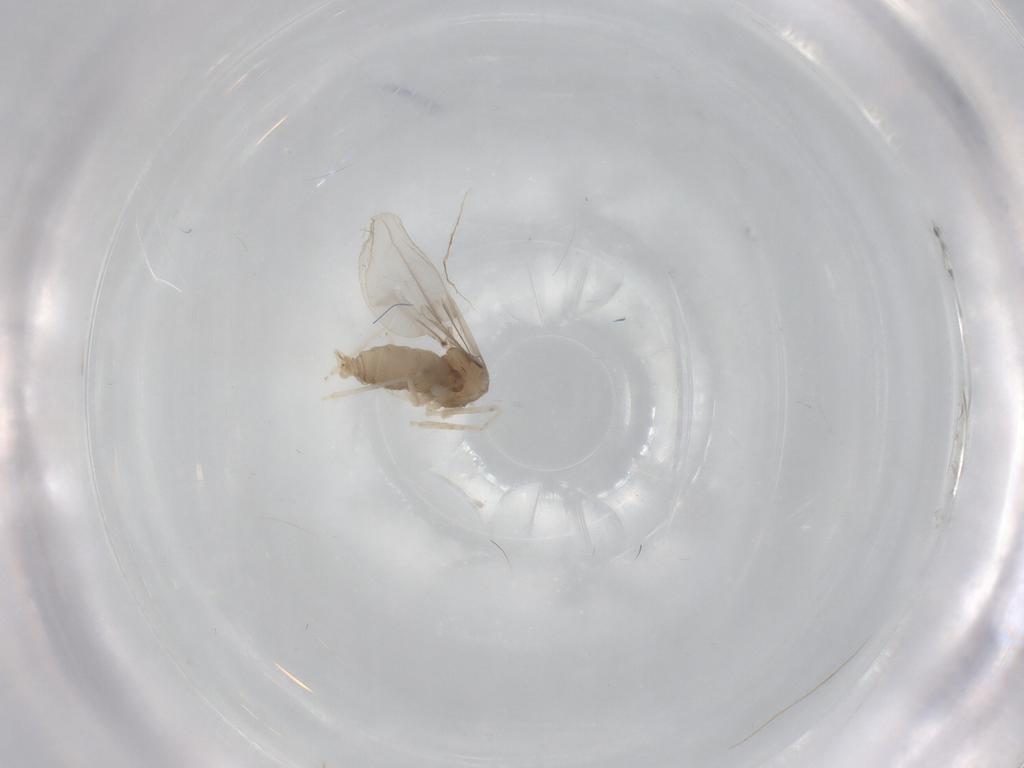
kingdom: Animalia
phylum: Arthropoda
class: Insecta
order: Diptera
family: Cecidomyiidae
